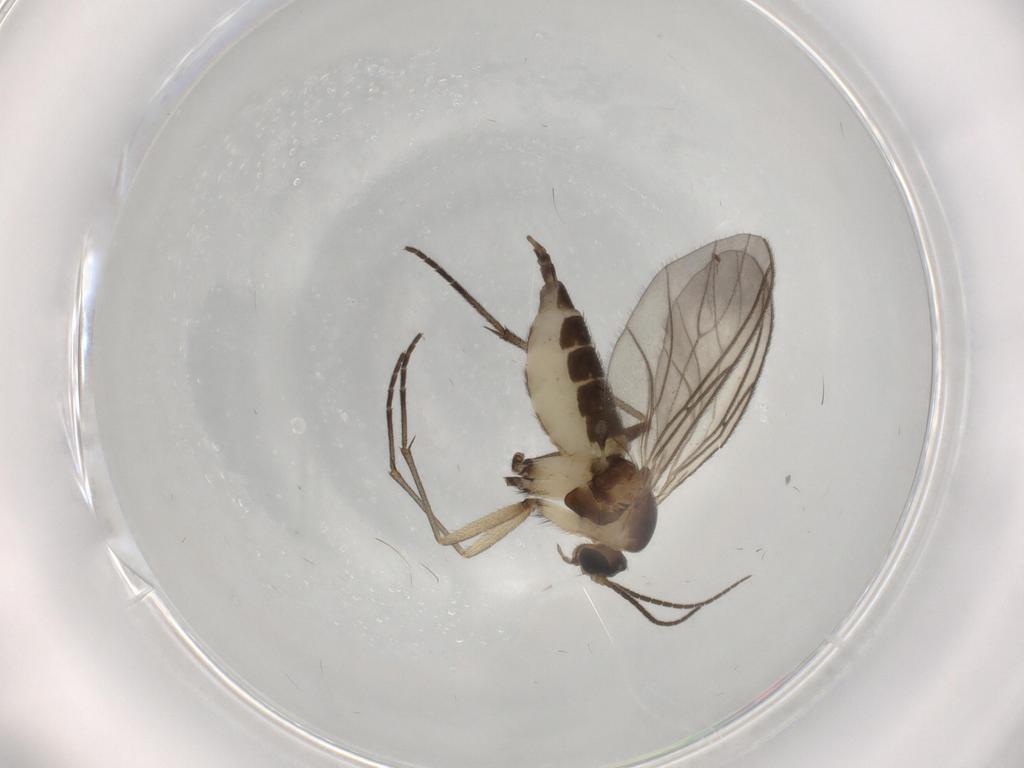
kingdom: Animalia
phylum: Arthropoda
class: Insecta
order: Diptera
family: Sciaridae
